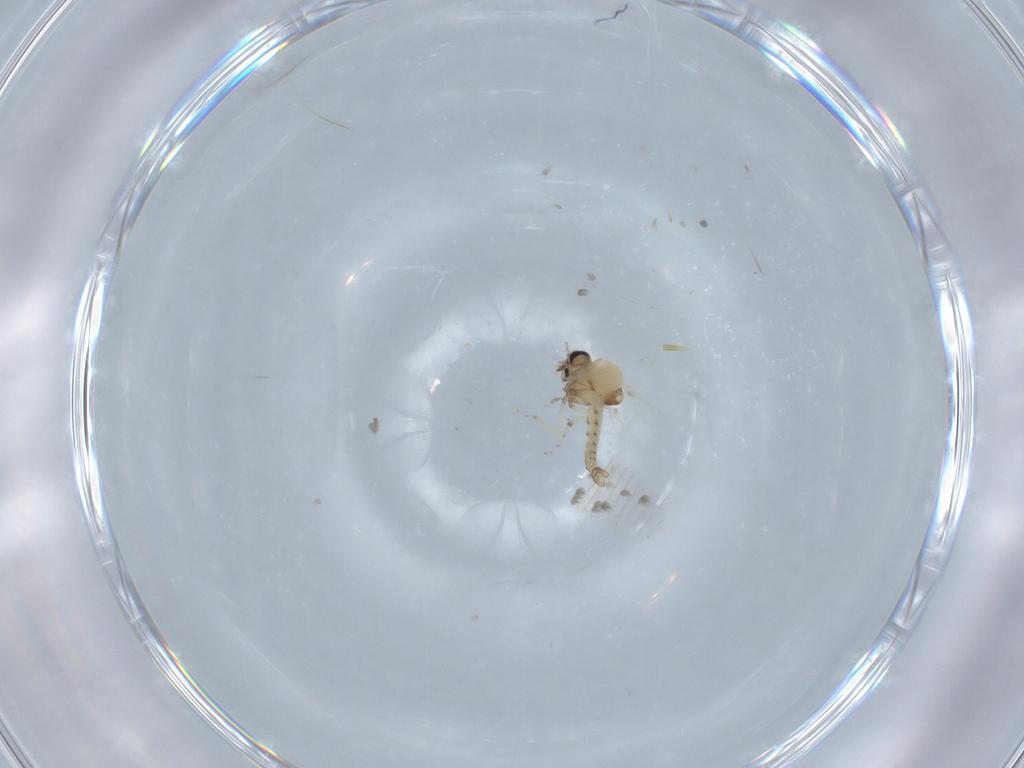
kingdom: Animalia
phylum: Arthropoda
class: Insecta
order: Diptera
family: Ceratopogonidae
